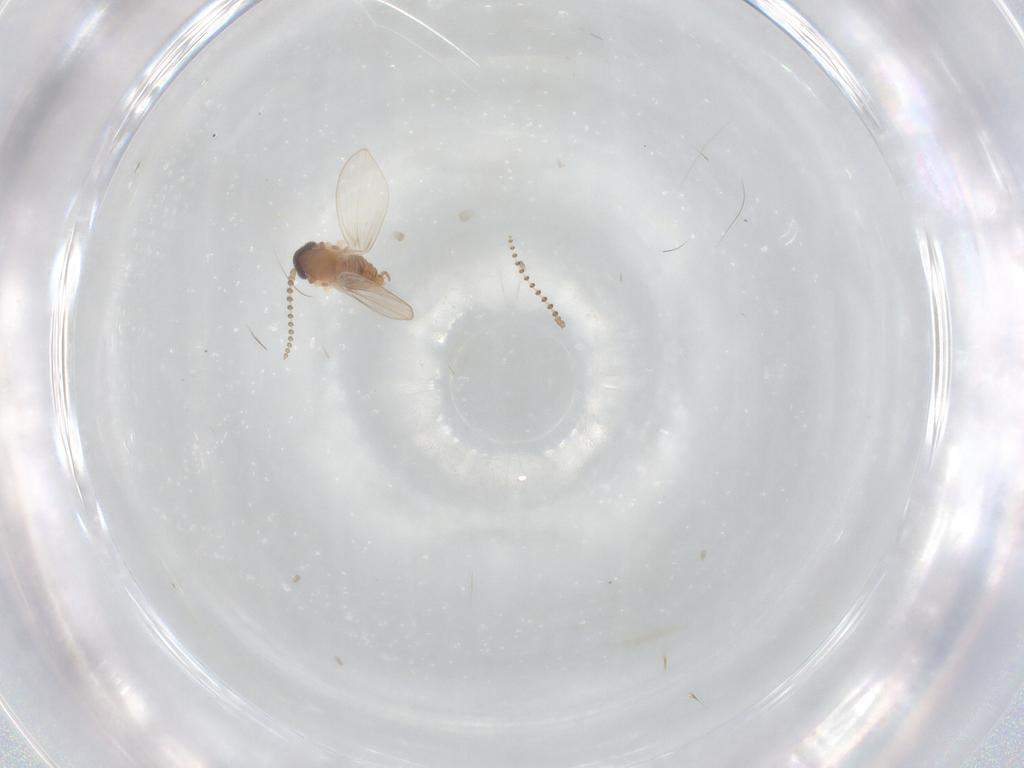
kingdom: Animalia
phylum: Arthropoda
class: Insecta
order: Diptera
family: Psychodidae
